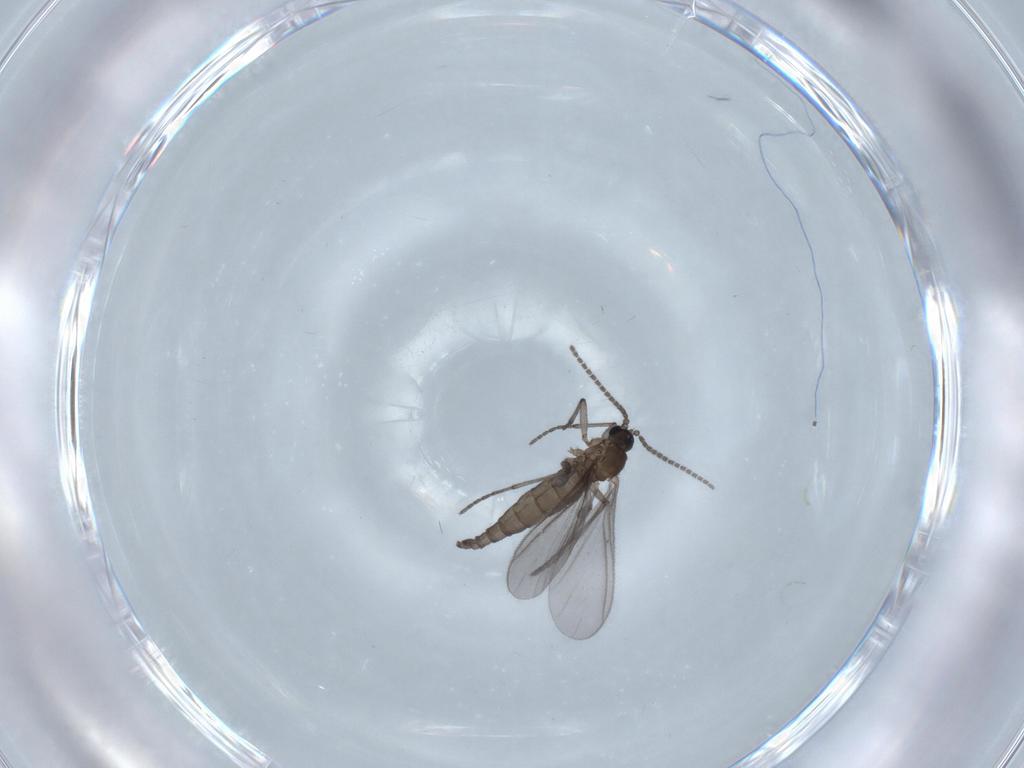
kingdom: Animalia
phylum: Arthropoda
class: Insecta
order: Diptera
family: Sciaridae
